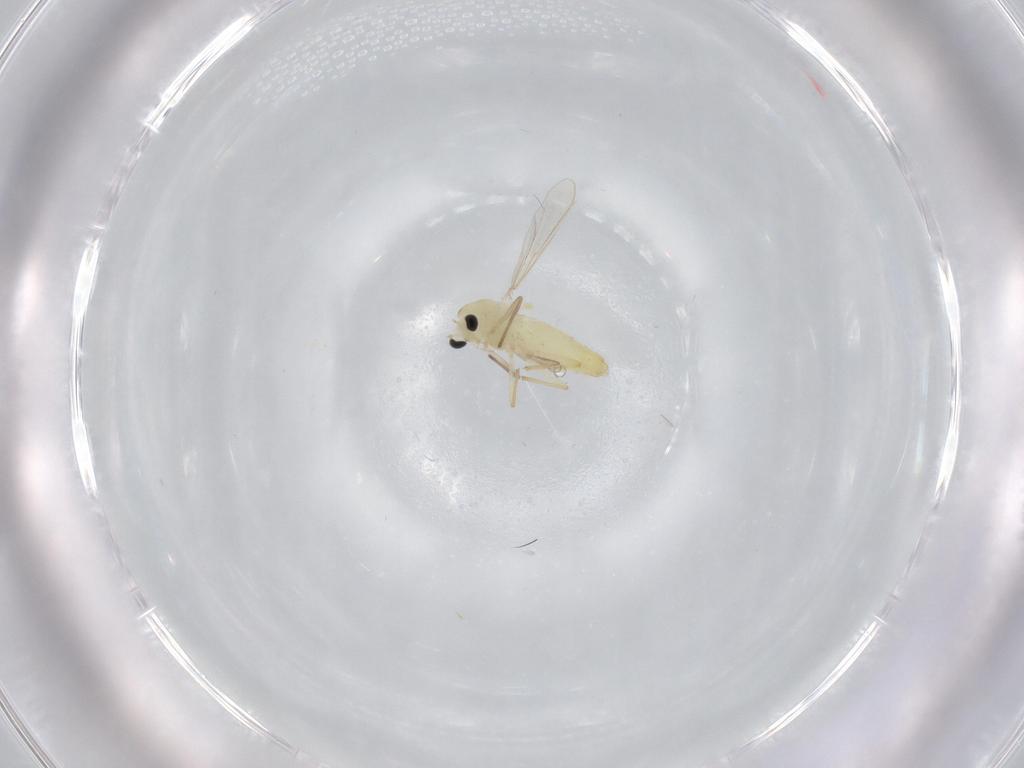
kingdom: Animalia
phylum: Arthropoda
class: Insecta
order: Diptera
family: Chironomidae
